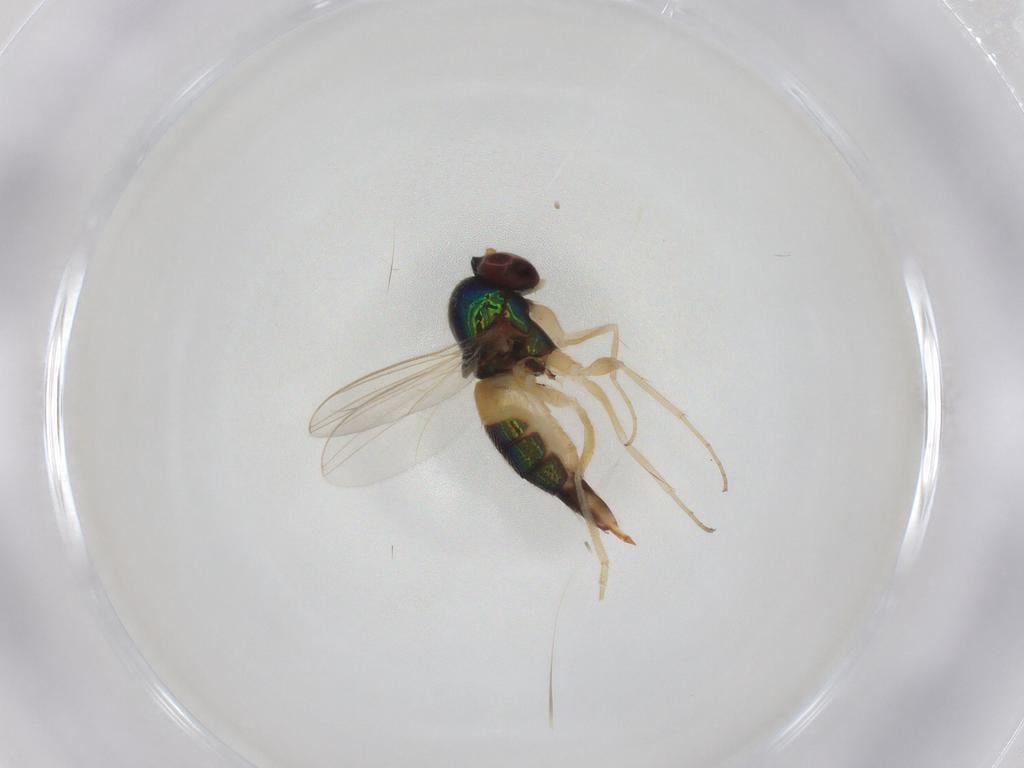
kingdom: Animalia
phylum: Arthropoda
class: Insecta
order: Diptera
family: Dolichopodidae
